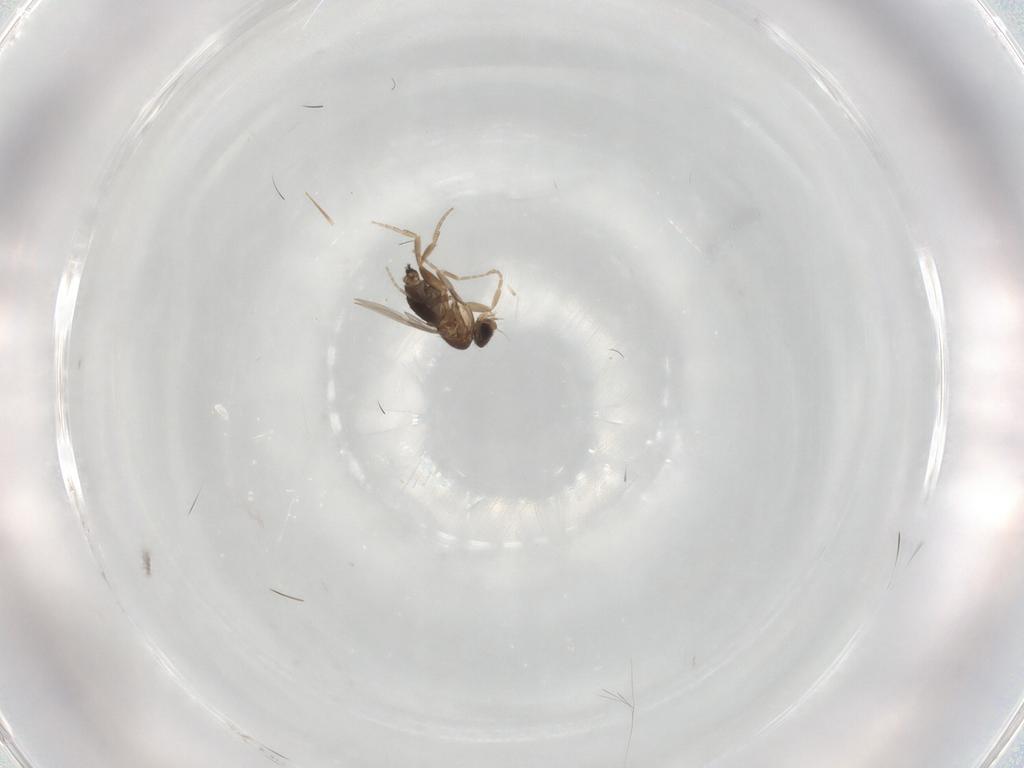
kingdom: Animalia
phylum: Arthropoda
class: Insecta
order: Diptera
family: Phoridae
